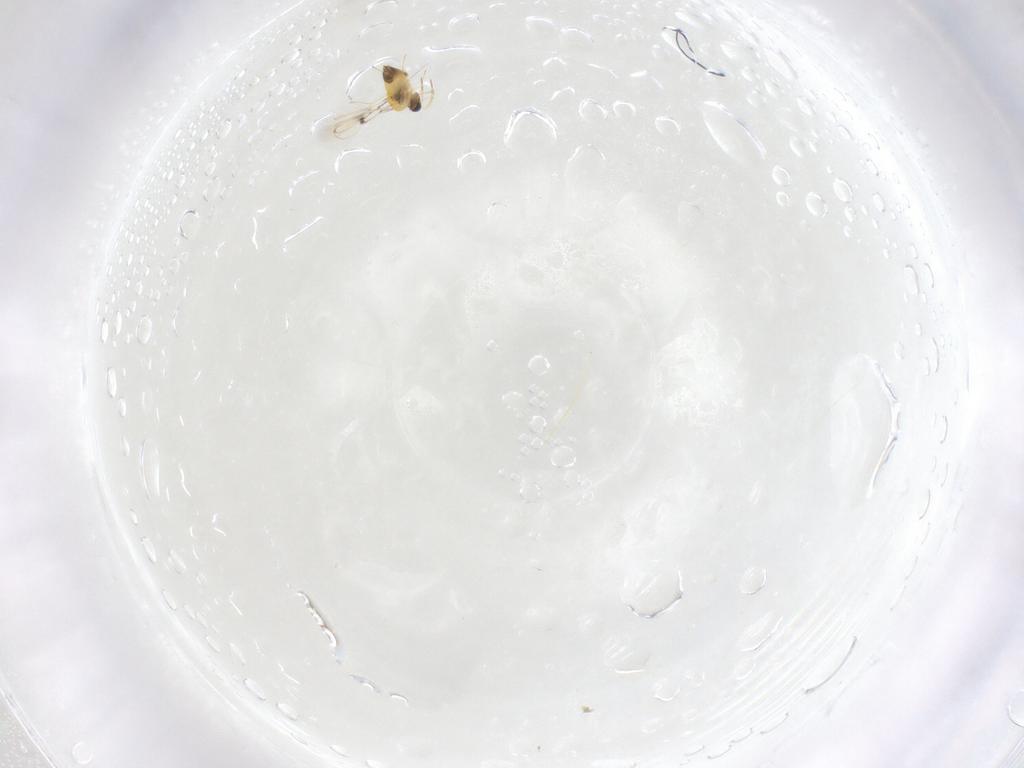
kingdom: Animalia
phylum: Arthropoda
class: Insecta
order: Hymenoptera
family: Trichogrammatidae
